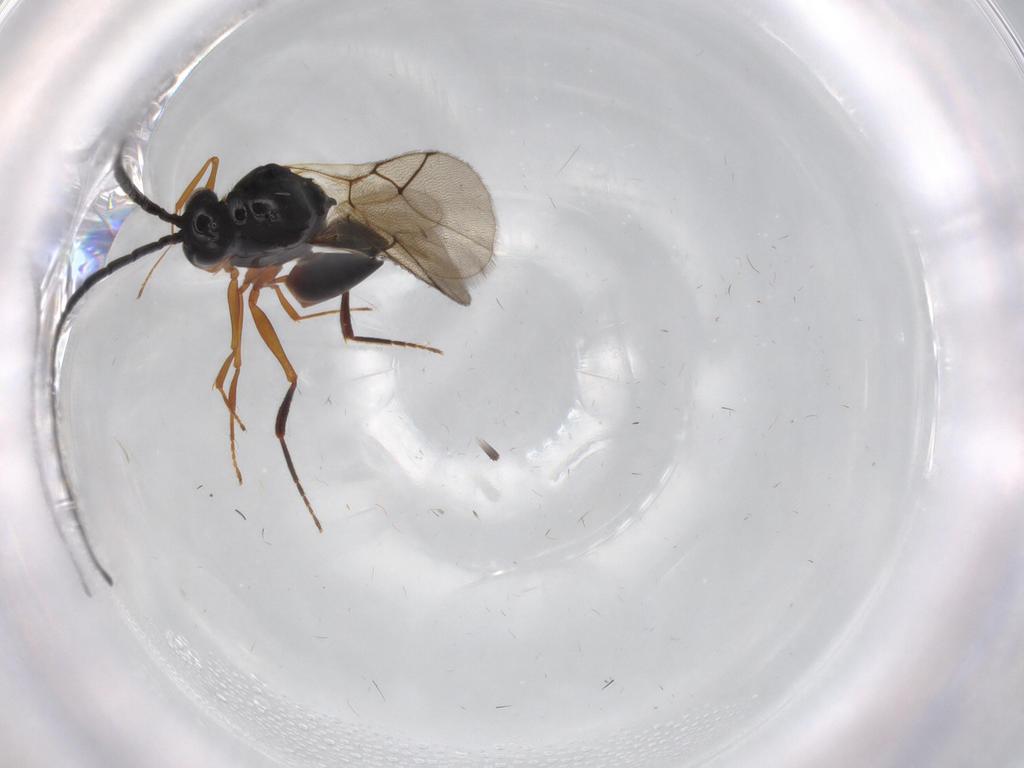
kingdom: Animalia
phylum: Arthropoda
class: Insecta
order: Hymenoptera
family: Figitidae
